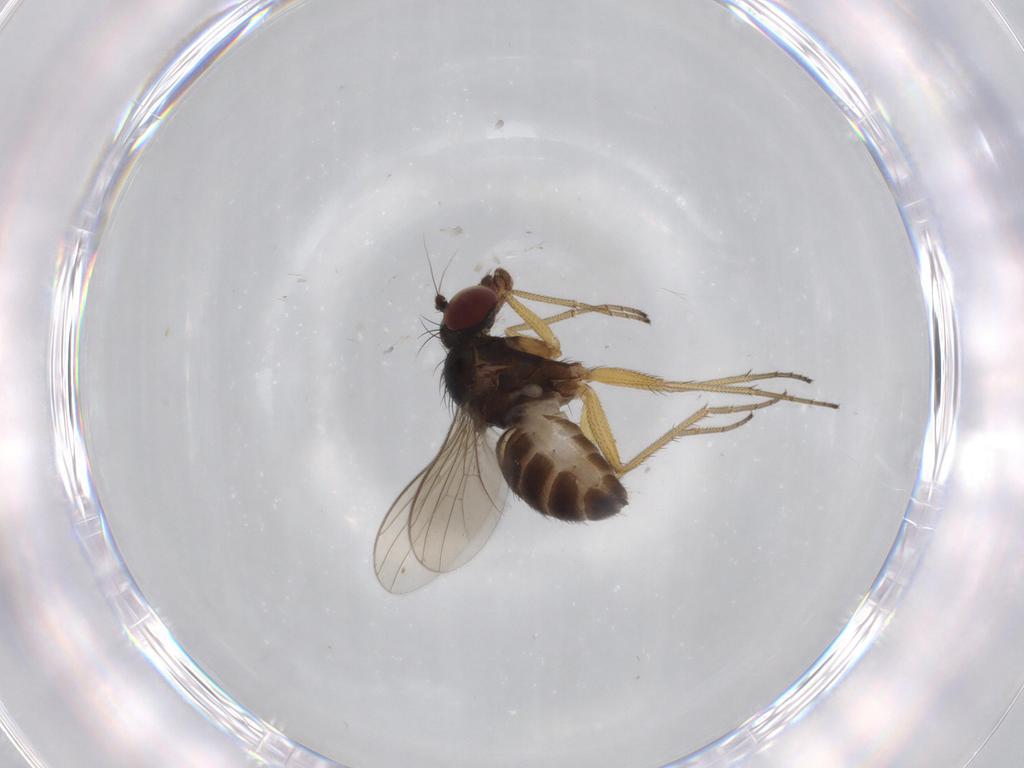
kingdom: Animalia
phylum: Arthropoda
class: Insecta
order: Diptera
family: Dolichopodidae
